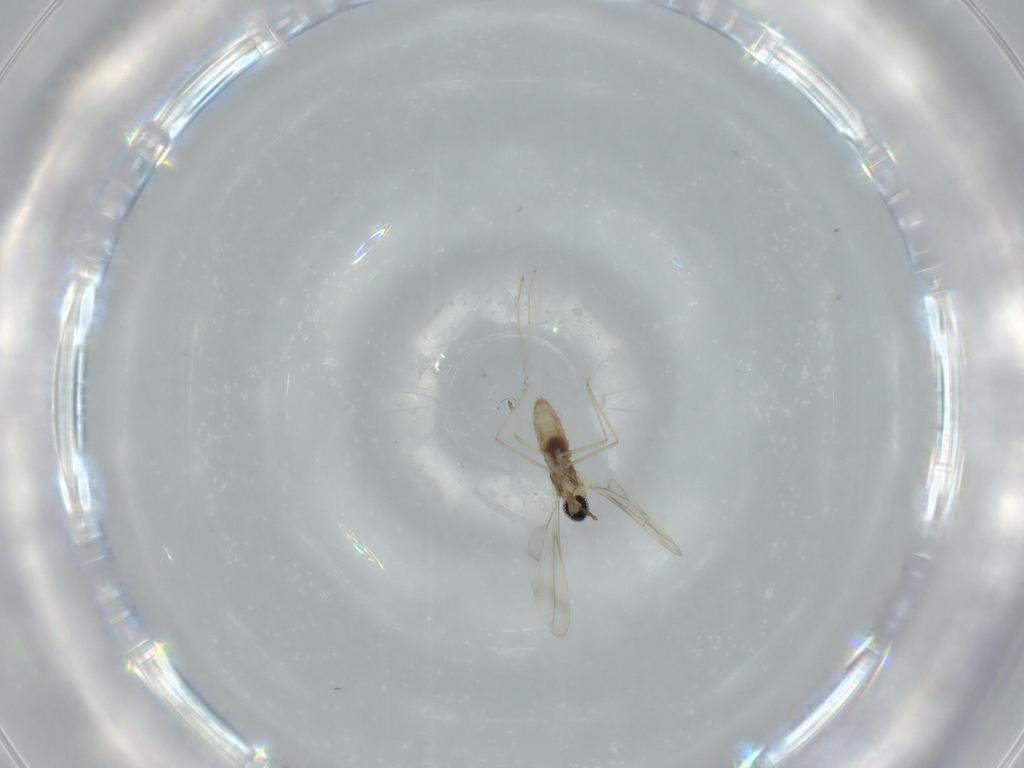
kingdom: Animalia
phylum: Arthropoda
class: Insecta
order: Diptera
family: Cecidomyiidae
